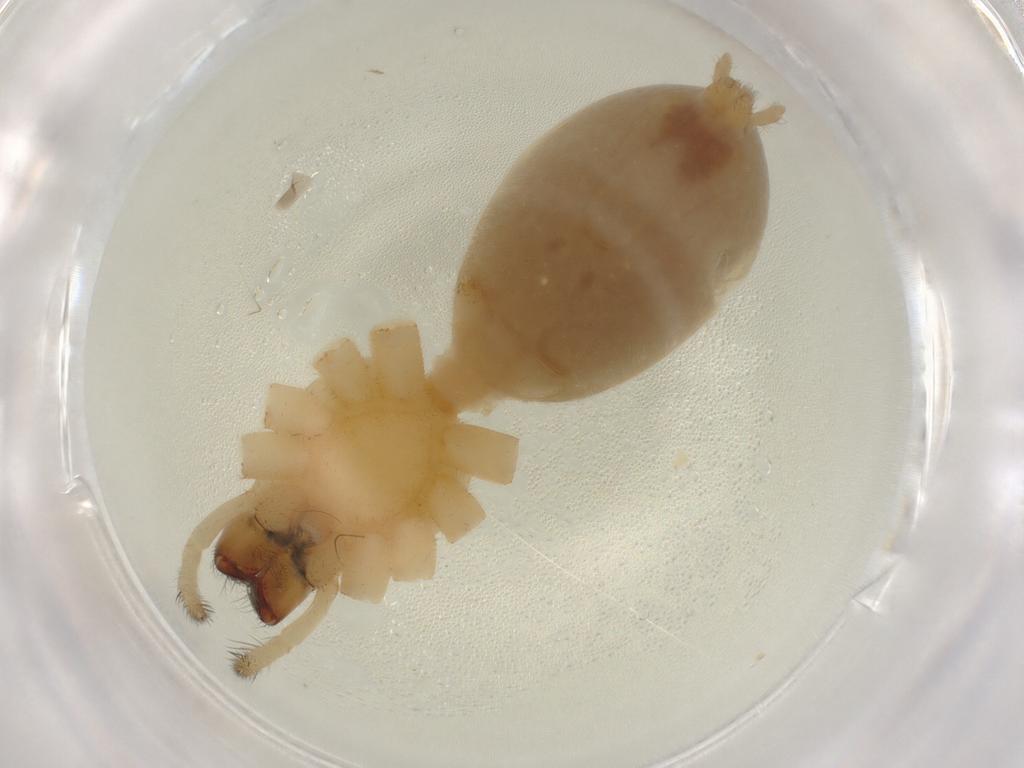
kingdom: Animalia
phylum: Arthropoda
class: Arachnida
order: Araneae
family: Anyphaenidae
